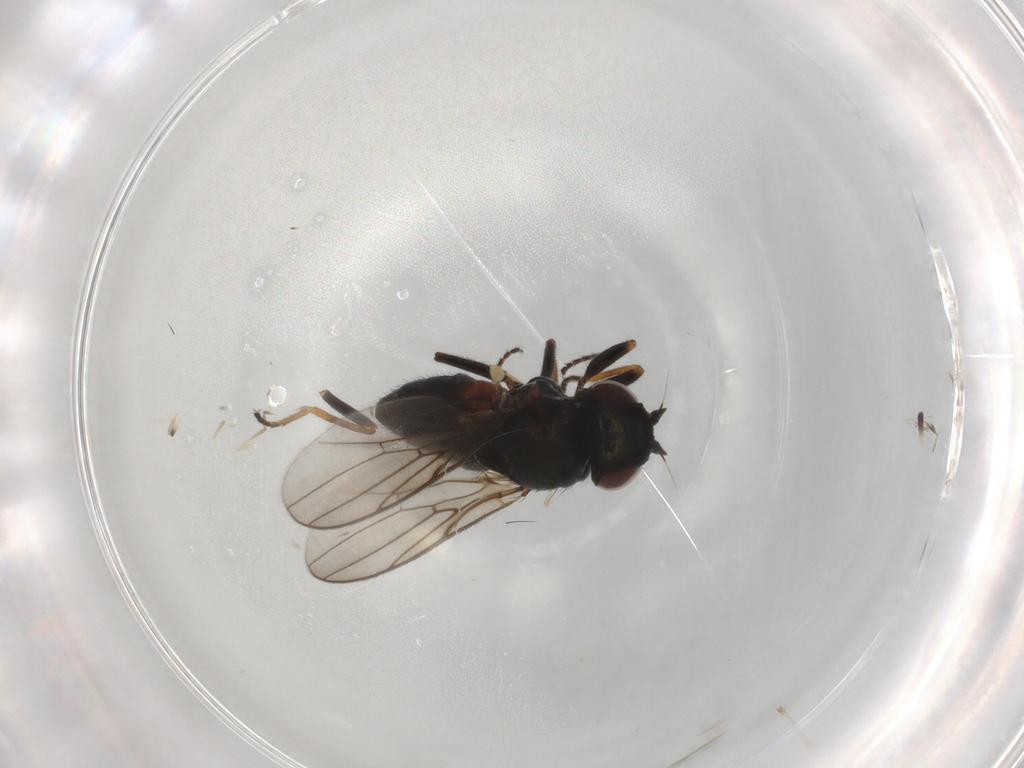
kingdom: Animalia
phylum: Arthropoda
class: Insecta
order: Diptera
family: Chloropidae
